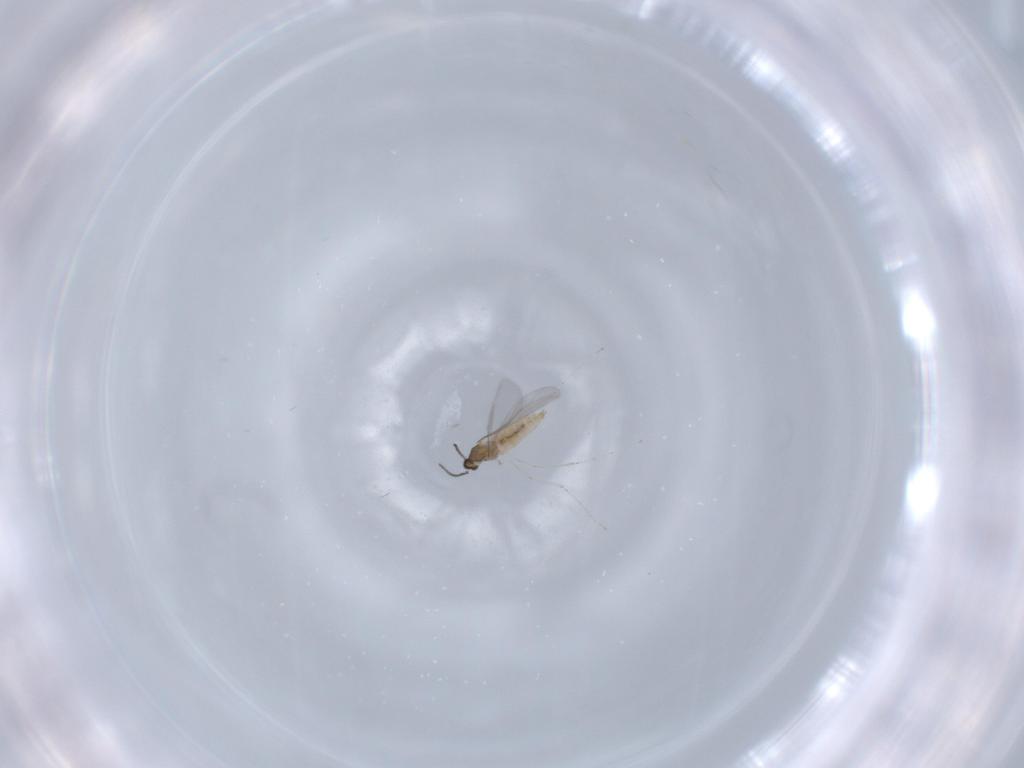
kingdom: Animalia
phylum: Arthropoda
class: Insecta
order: Diptera
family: Cecidomyiidae
